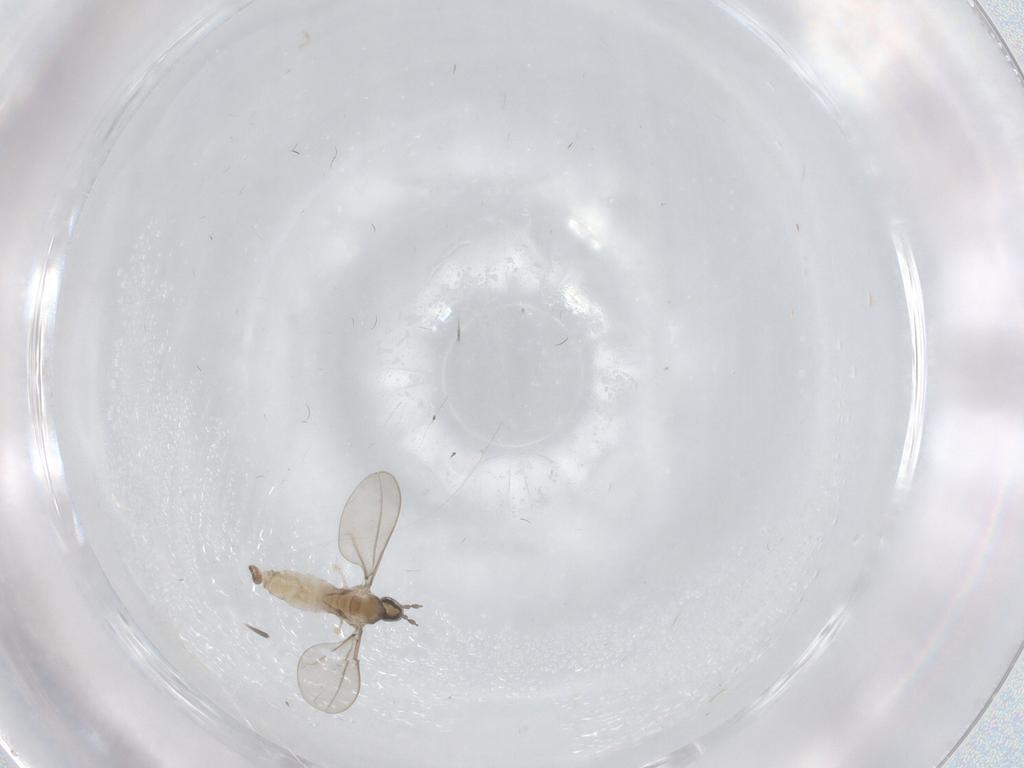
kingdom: Animalia
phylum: Arthropoda
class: Insecta
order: Diptera
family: Cecidomyiidae
